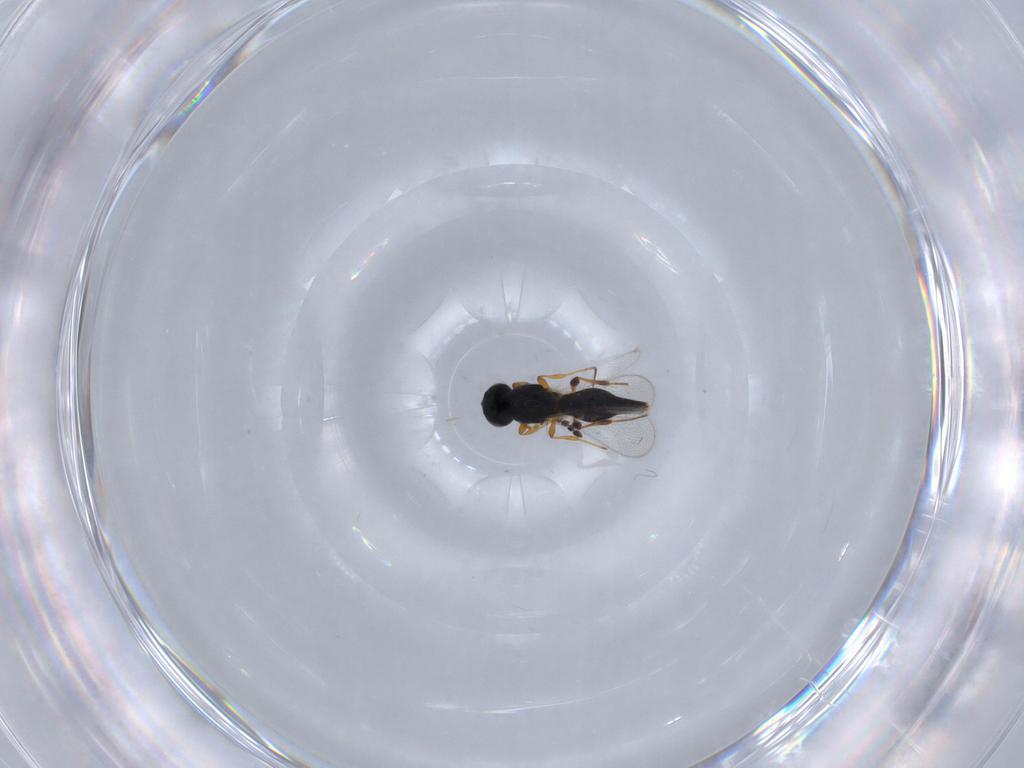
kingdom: Animalia
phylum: Arthropoda
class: Insecta
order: Hymenoptera
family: Platygastridae
